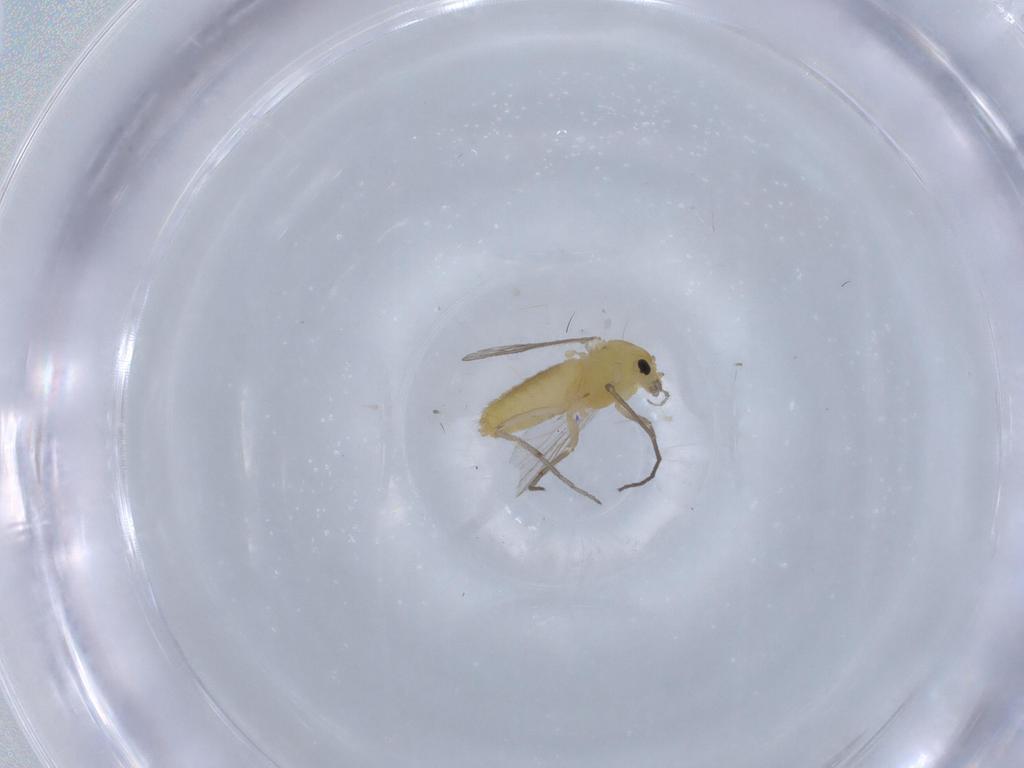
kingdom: Animalia
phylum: Arthropoda
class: Insecta
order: Diptera
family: Chironomidae
